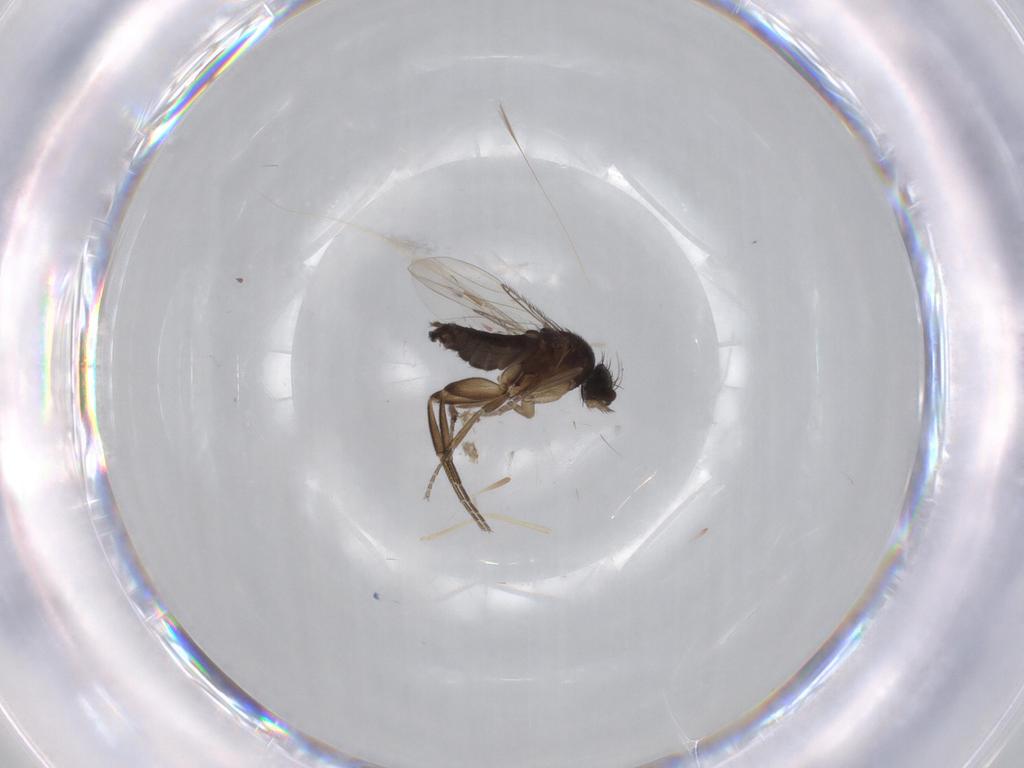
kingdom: Animalia
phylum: Arthropoda
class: Insecta
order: Diptera
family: Phoridae
